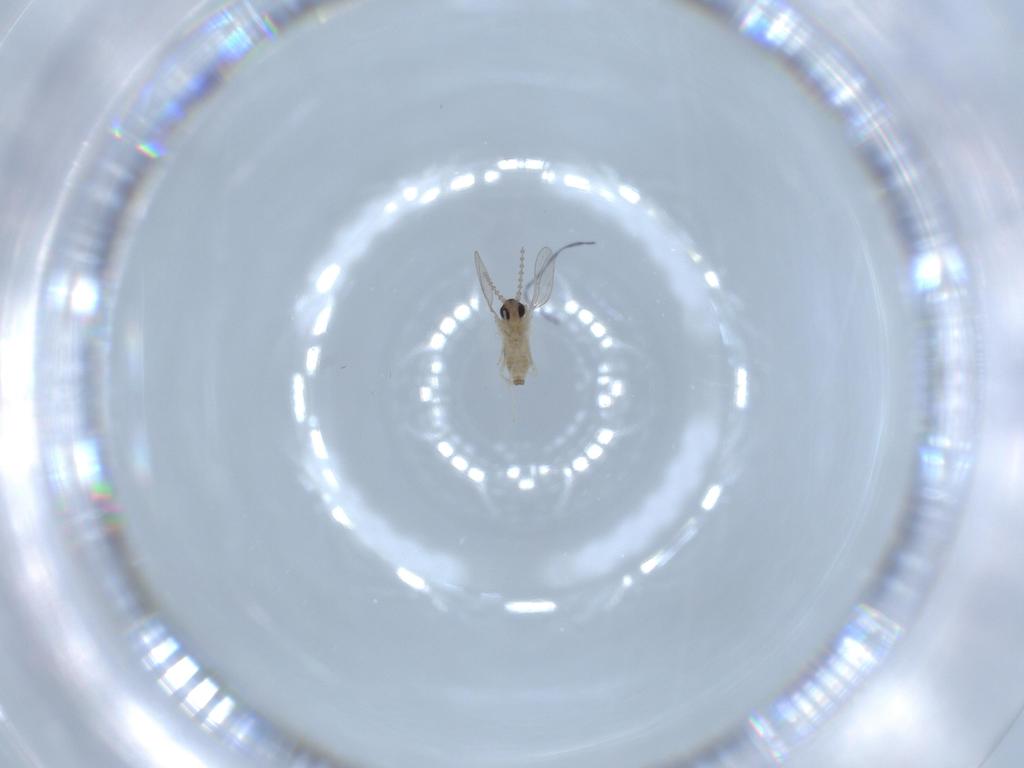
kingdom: Animalia
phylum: Arthropoda
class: Insecta
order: Diptera
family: Cecidomyiidae
